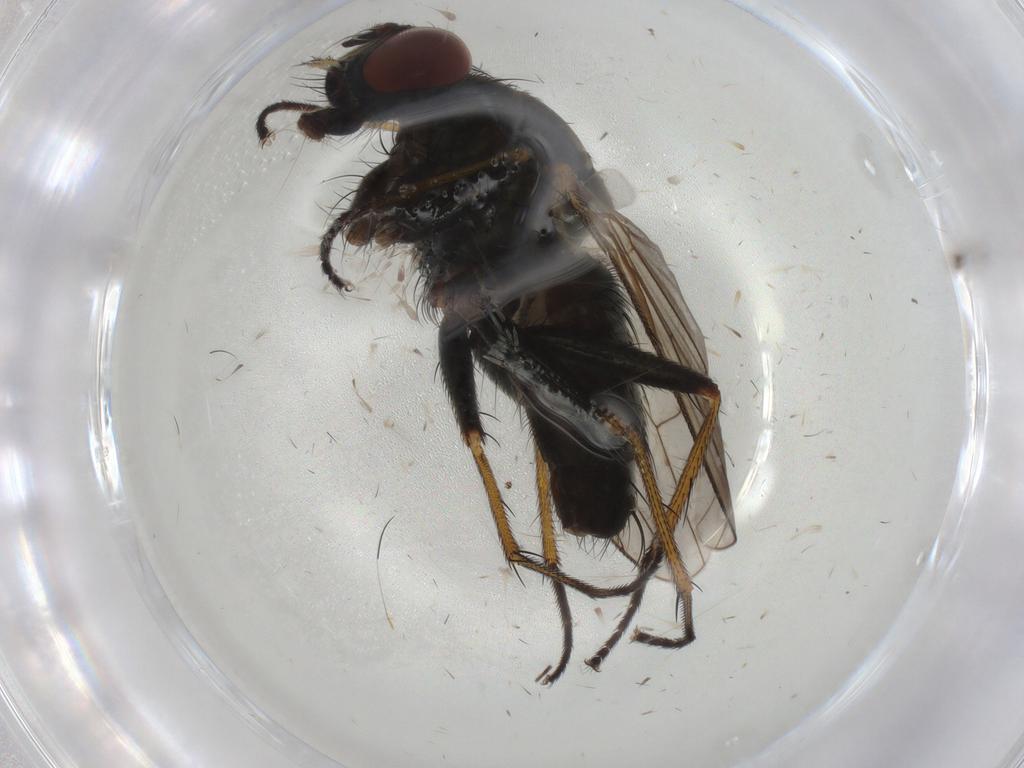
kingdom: Animalia
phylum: Arthropoda
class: Insecta
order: Diptera
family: Muscidae
